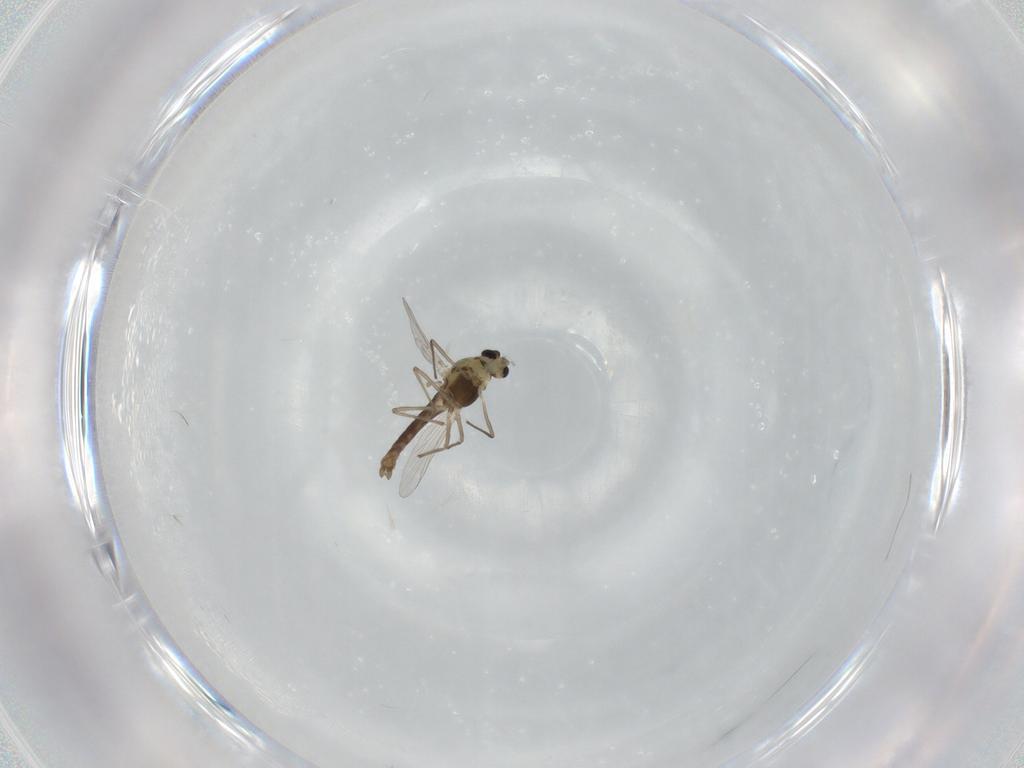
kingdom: Animalia
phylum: Arthropoda
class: Insecta
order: Diptera
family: Chironomidae
